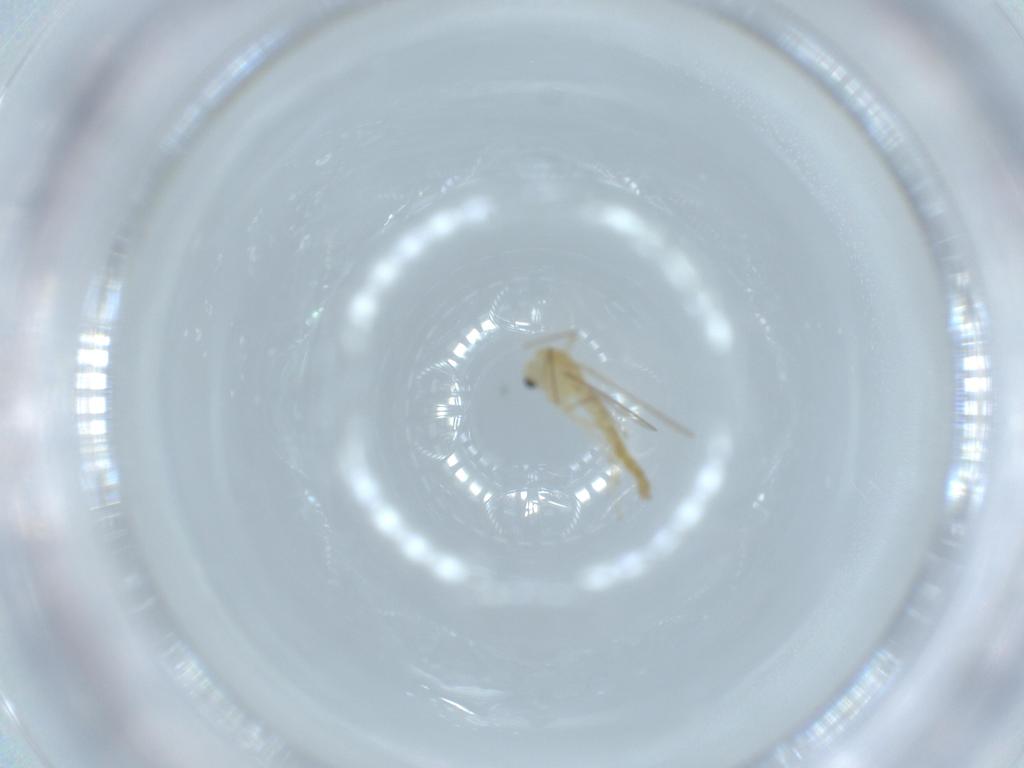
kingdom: Animalia
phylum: Arthropoda
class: Insecta
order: Diptera
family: Chironomidae
